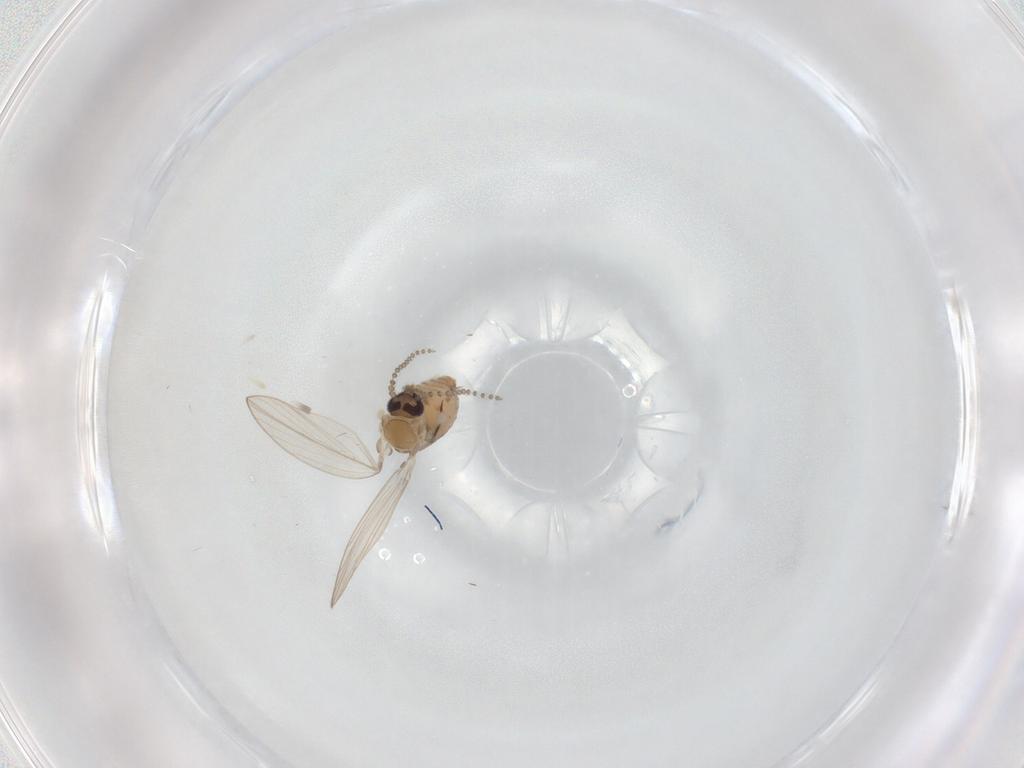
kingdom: Animalia
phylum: Arthropoda
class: Insecta
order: Diptera
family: Psychodidae
